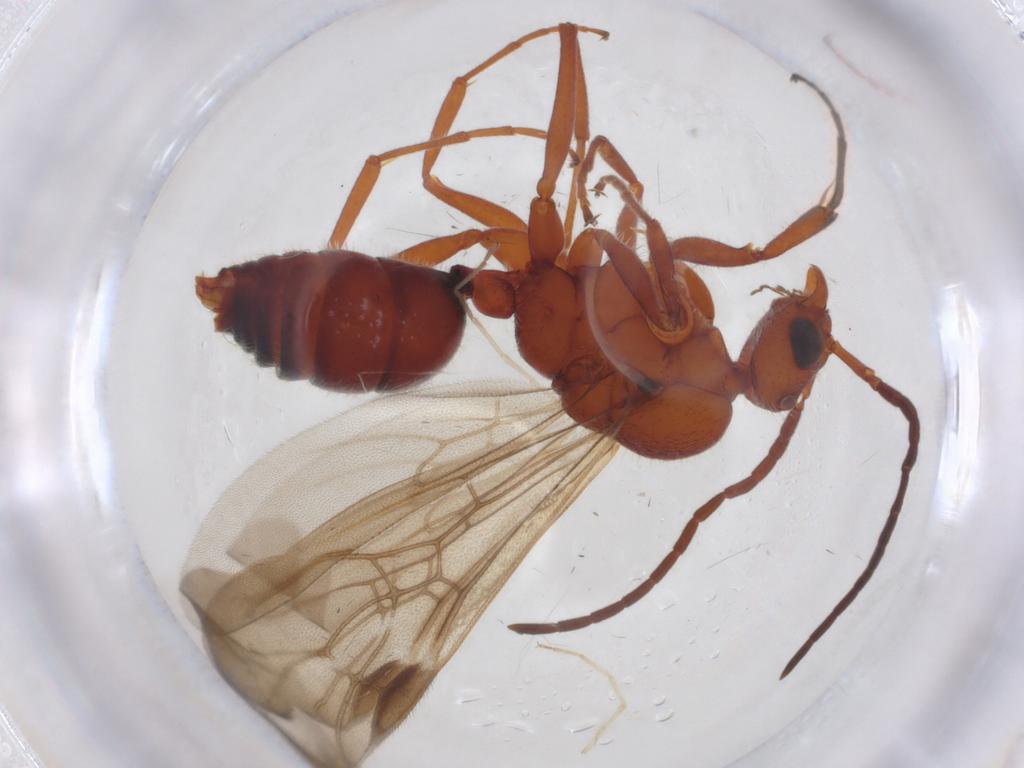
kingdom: Animalia
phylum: Arthropoda
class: Insecta
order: Hymenoptera
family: Formicidae
